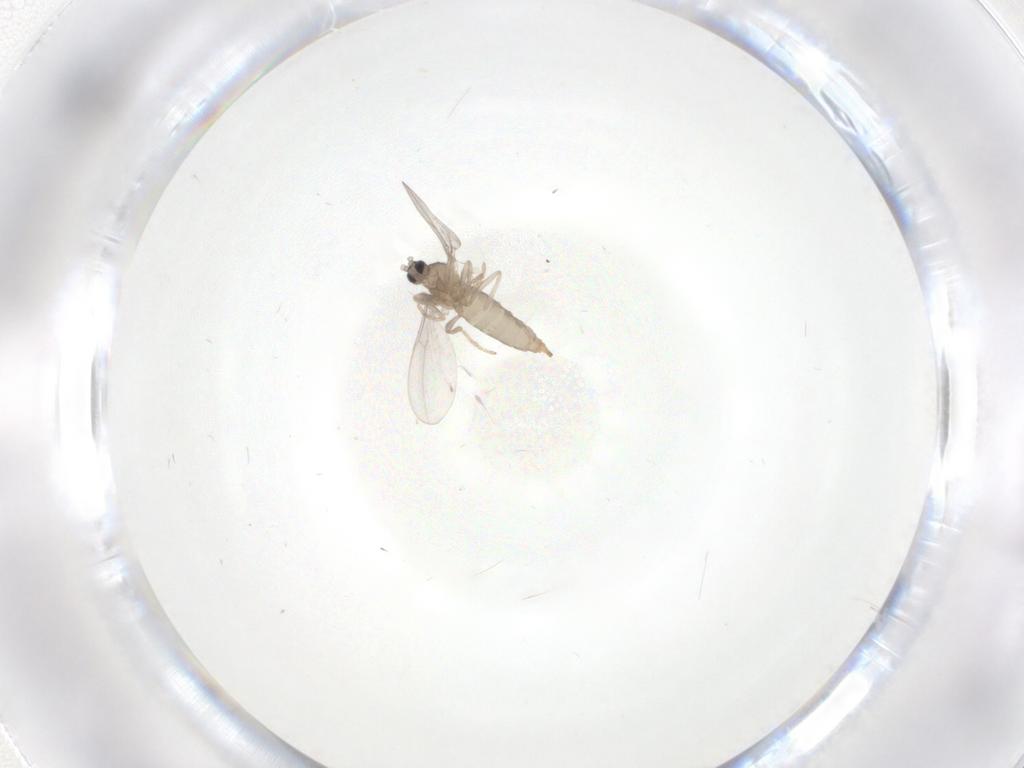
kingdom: Animalia
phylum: Arthropoda
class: Insecta
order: Diptera
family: Cecidomyiidae
